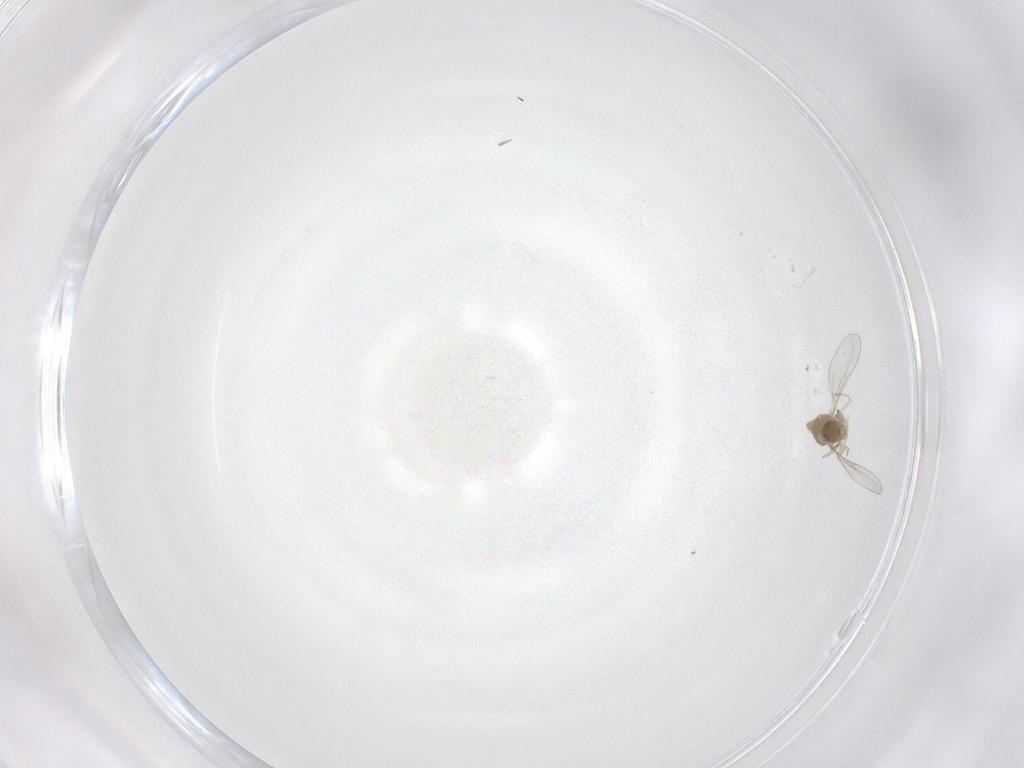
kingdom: Animalia
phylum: Arthropoda
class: Insecta
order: Diptera
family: Cecidomyiidae
